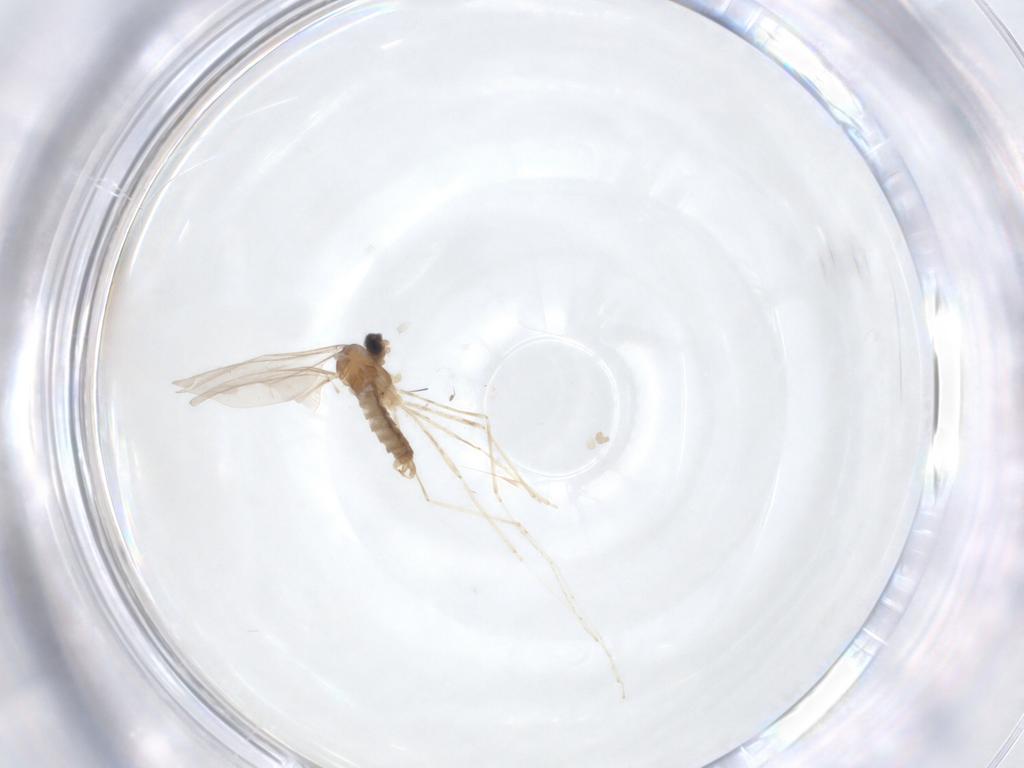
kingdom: Animalia
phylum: Arthropoda
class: Insecta
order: Diptera
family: Cecidomyiidae
